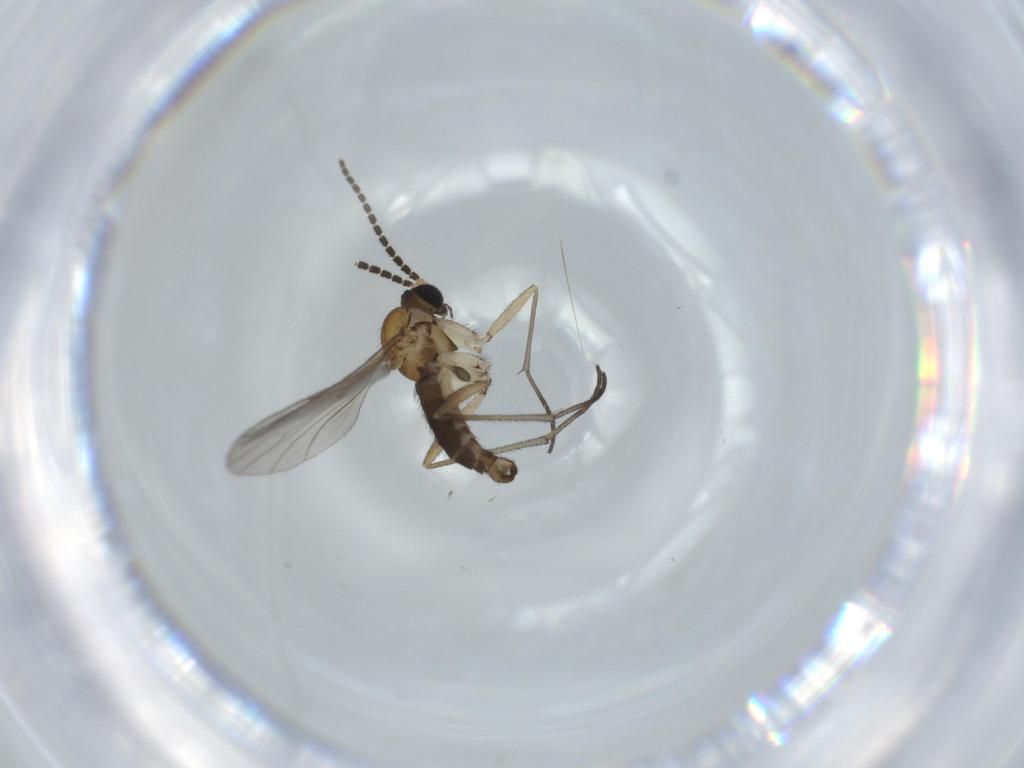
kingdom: Animalia
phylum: Arthropoda
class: Insecta
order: Diptera
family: Sciaridae
